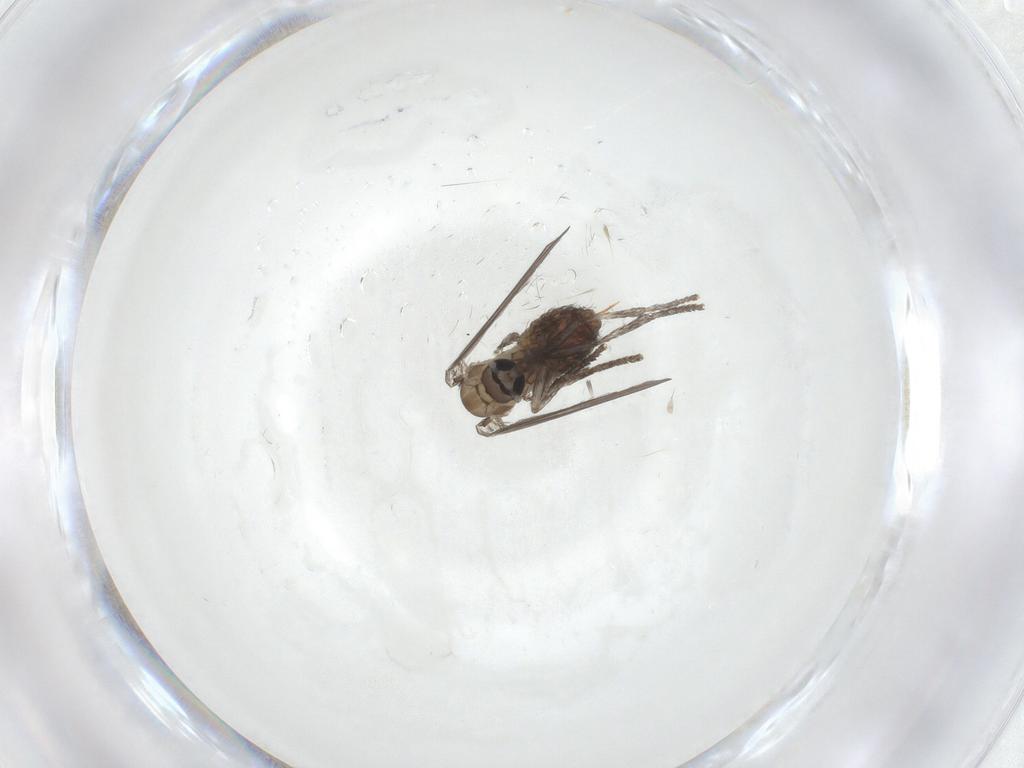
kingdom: Animalia
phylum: Arthropoda
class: Insecta
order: Diptera
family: Psychodidae
